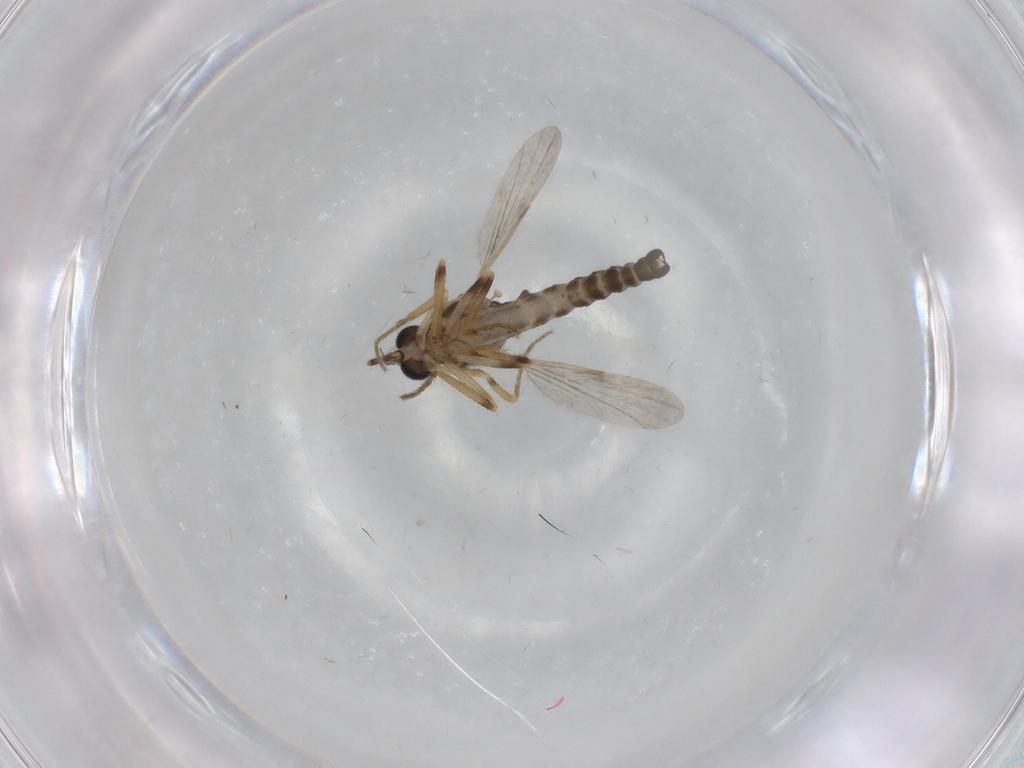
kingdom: Animalia
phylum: Arthropoda
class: Insecta
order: Diptera
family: Ceratopogonidae
